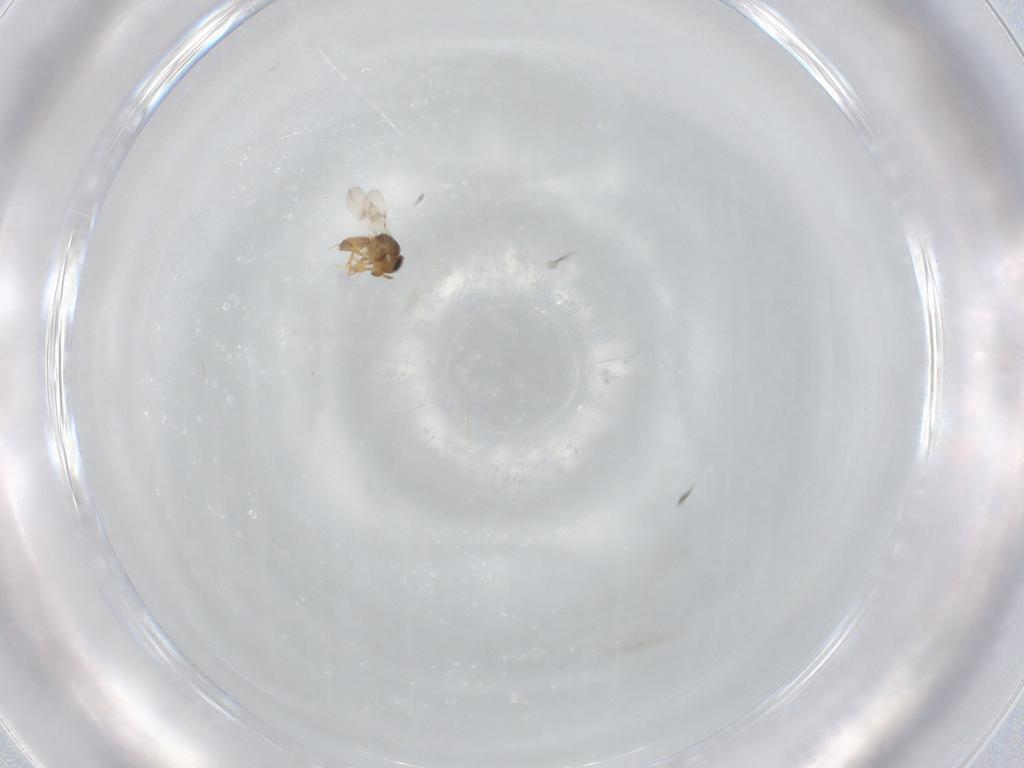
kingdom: Animalia
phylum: Arthropoda
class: Insecta
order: Hymenoptera
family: Scelionidae
